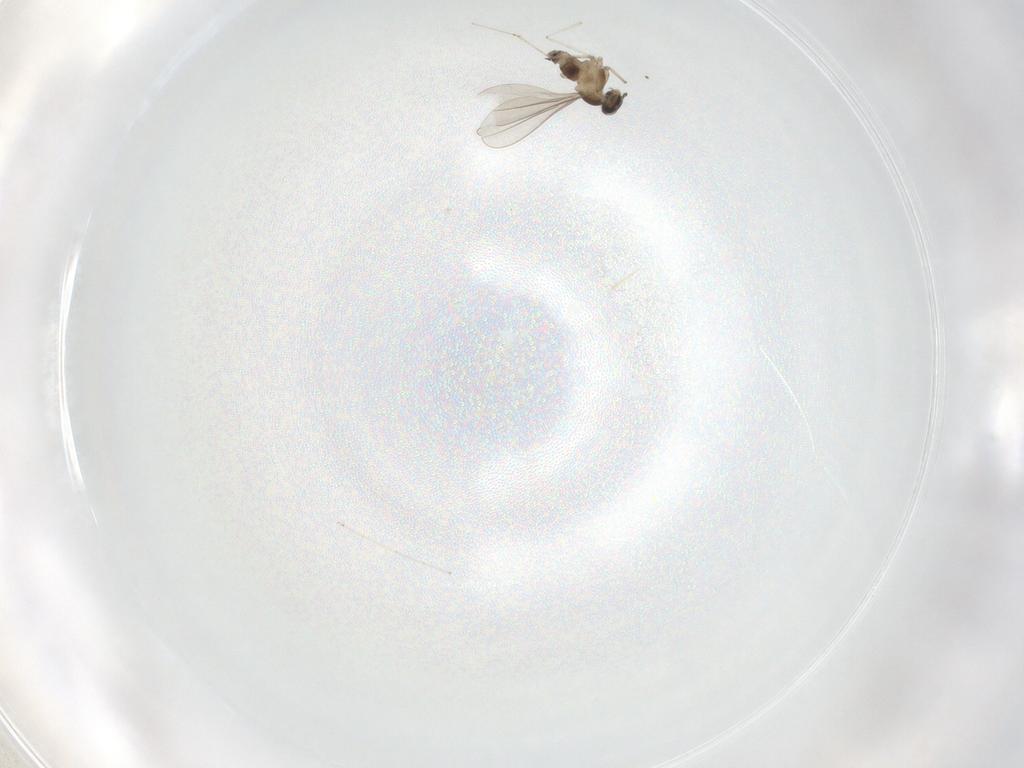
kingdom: Animalia
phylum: Arthropoda
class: Insecta
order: Diptera
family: Cecidomyiidae
